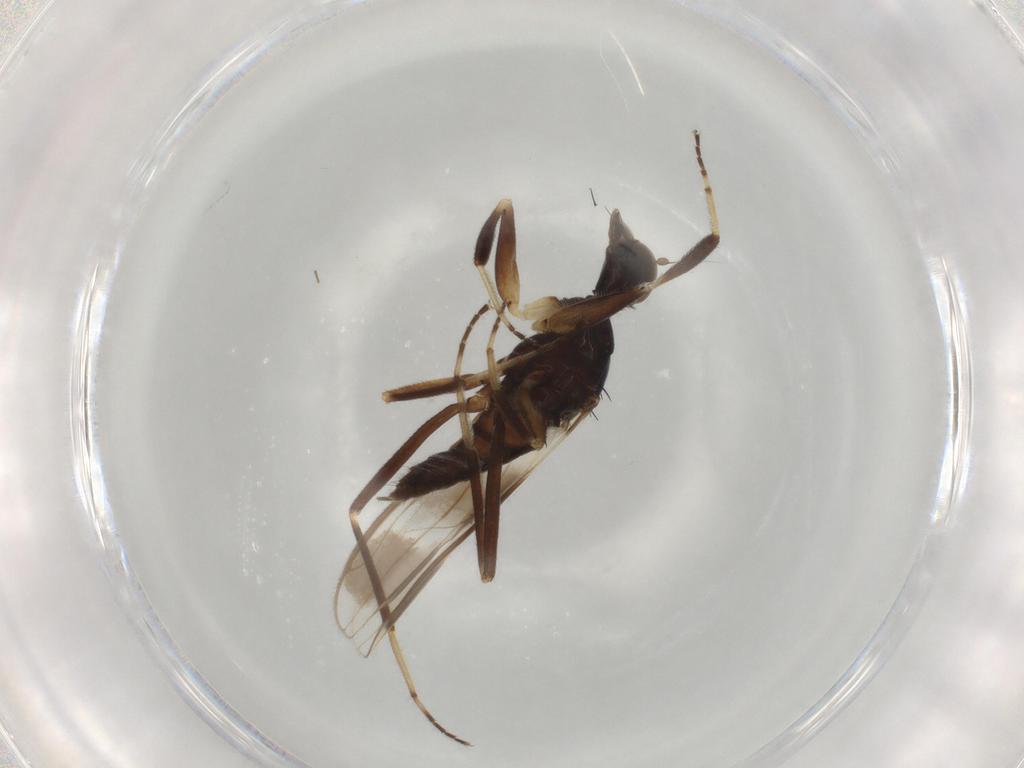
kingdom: Animalia
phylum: Arthropoda
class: Insecta
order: Diptera
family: Hybotidae
